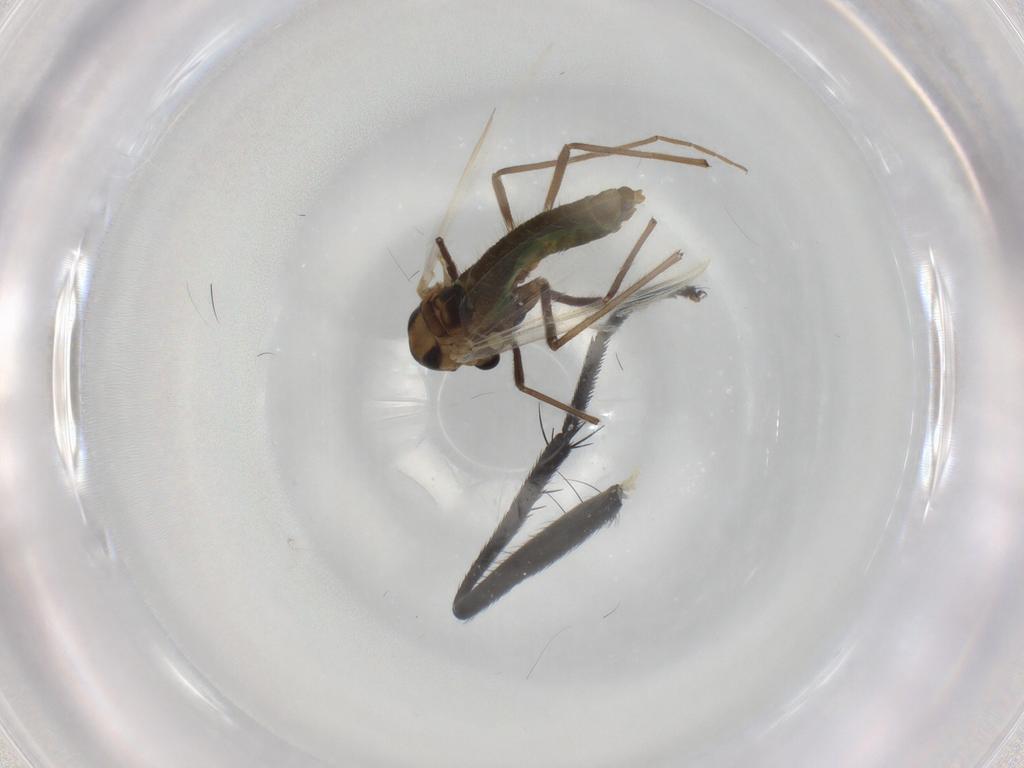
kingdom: Animalia
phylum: Arthropoda
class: Insecta
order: Diptera
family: Chironomidae
